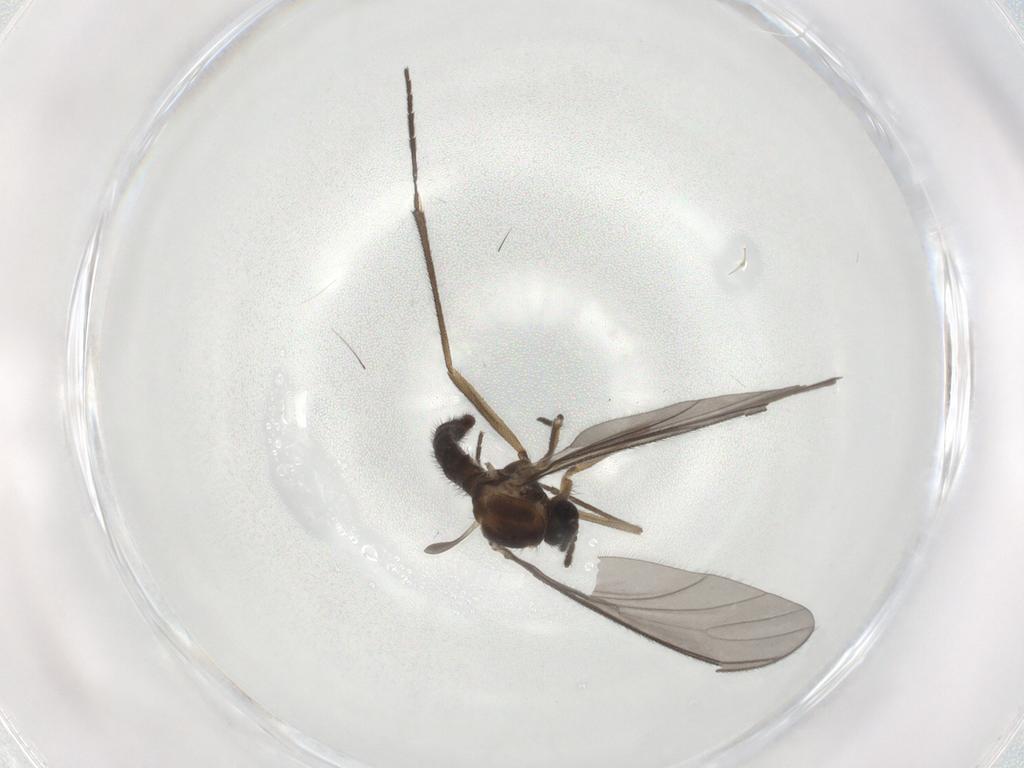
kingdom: Animalia
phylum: Arthropoda
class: Insecta
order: Diptera
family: Sciaridae
